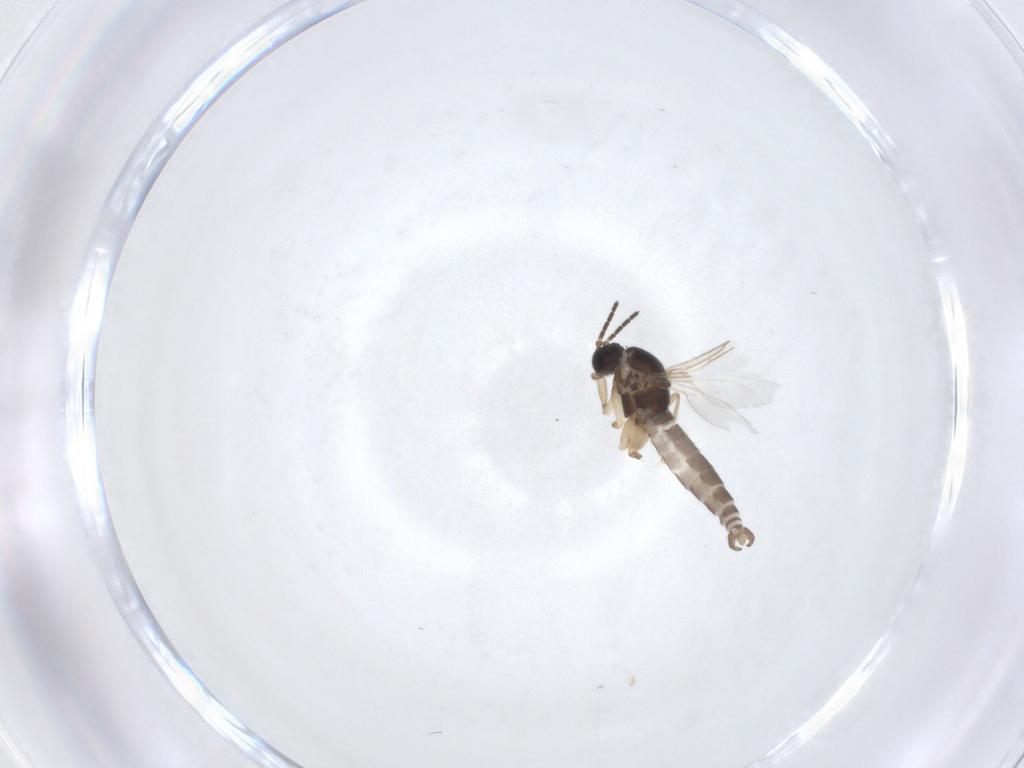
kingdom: Animalia
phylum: Arthropoda
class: Insecta
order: Diptera
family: Sciaridae
